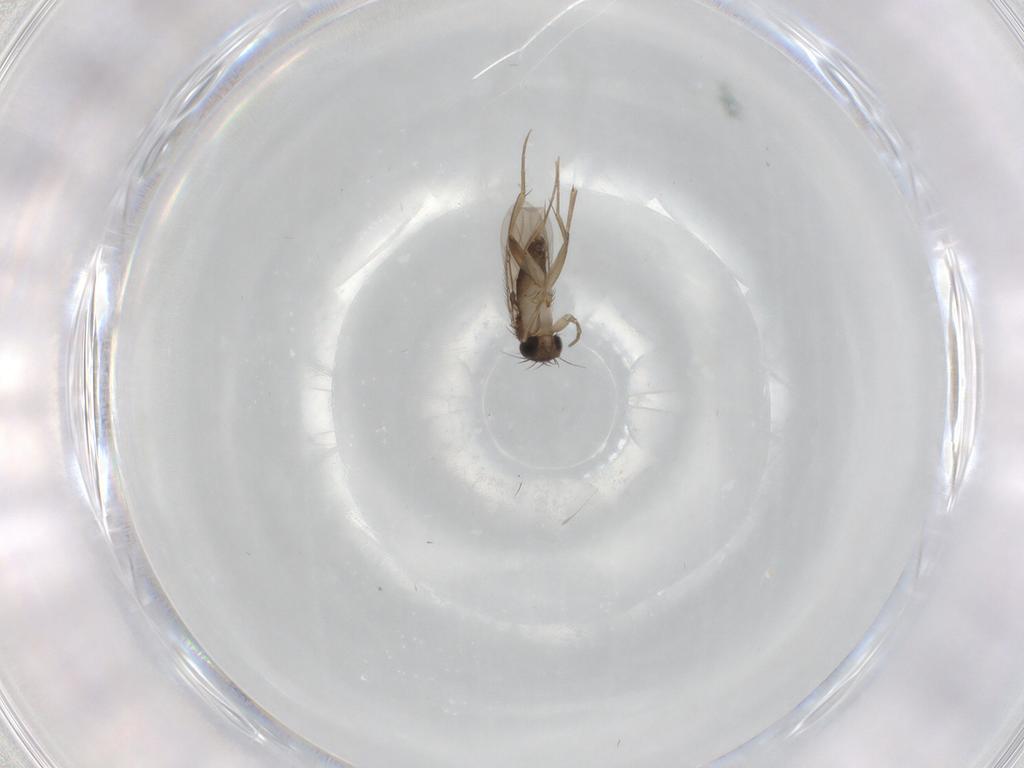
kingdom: Animalia
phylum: Arthropoda
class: Insecta
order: Diptera
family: Phoridae
